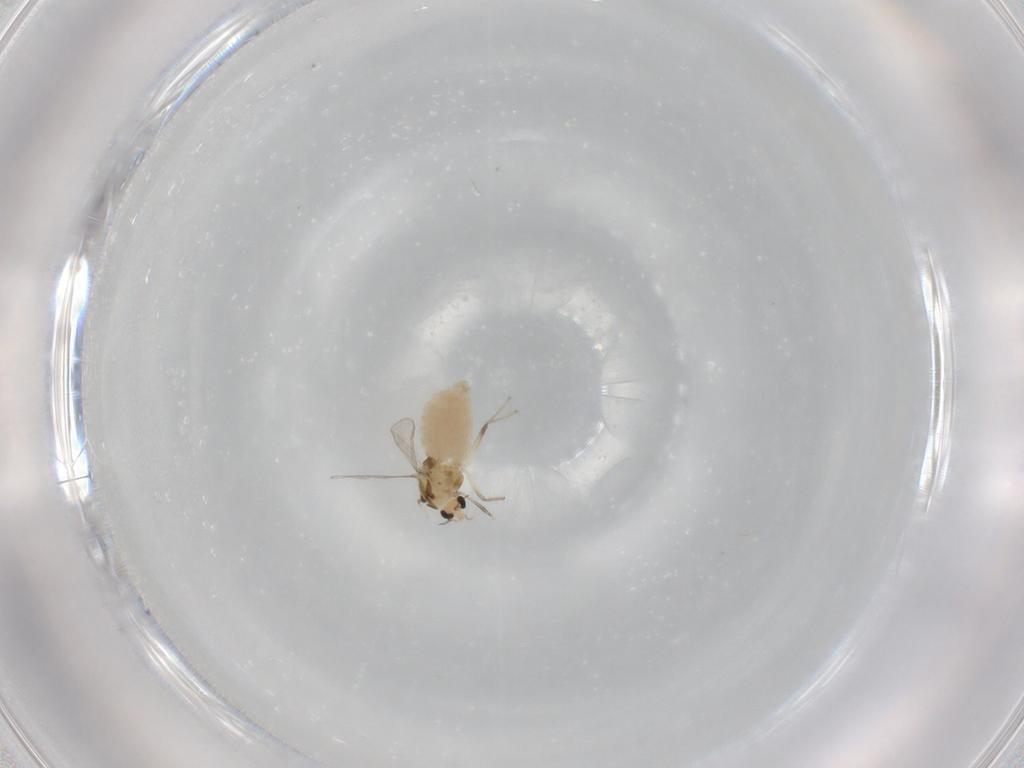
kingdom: Animalia
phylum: Arthropoda
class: Insecta
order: Diptera
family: Chironomidae
